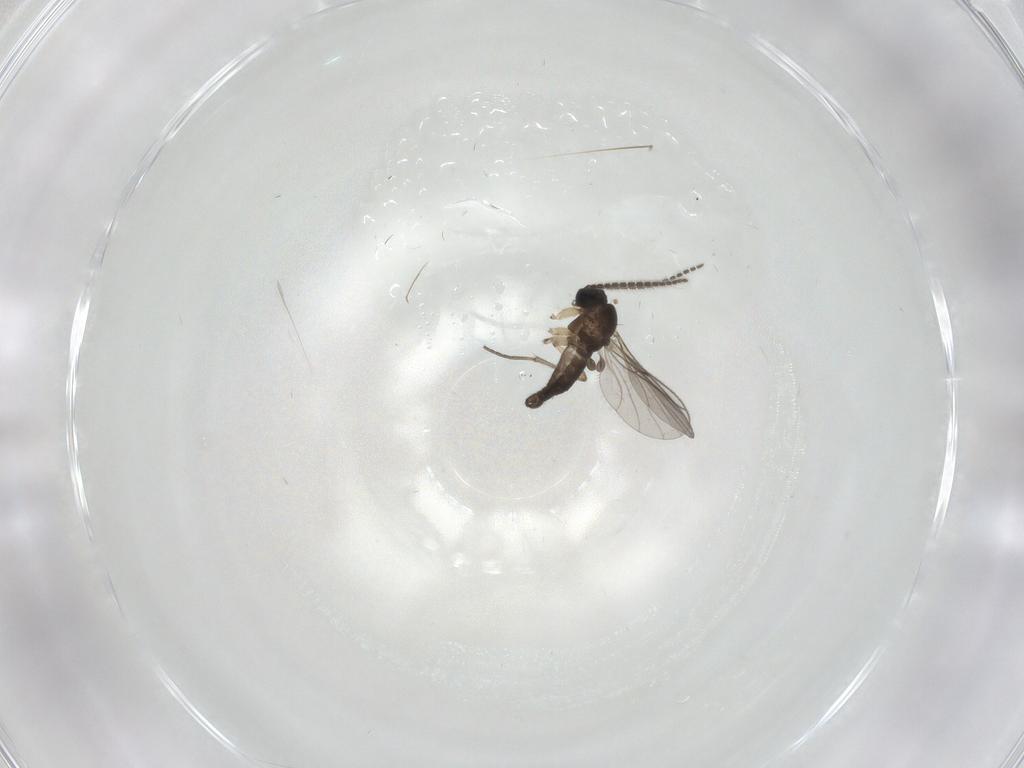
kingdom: Animalia
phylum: Arthropoda
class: Insecta
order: Diptera
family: Sciaridae
